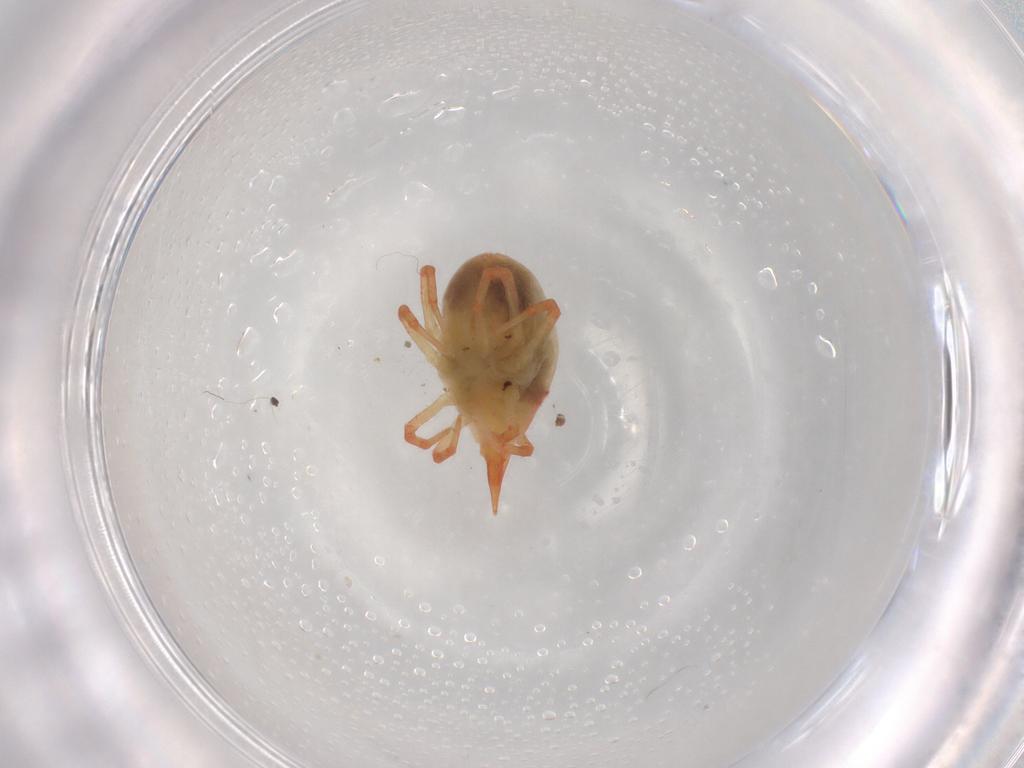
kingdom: Animalia
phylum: Arthropoda
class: Arachnida
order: Trombidiformes
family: Bdellidae
